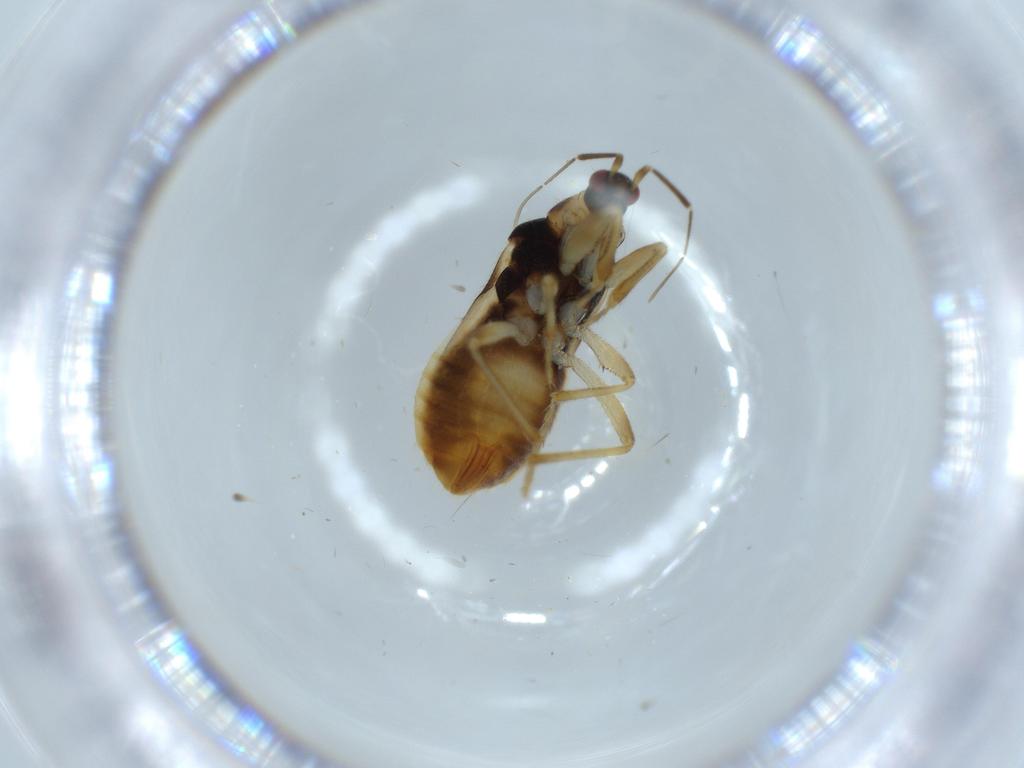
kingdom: Animalia
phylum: Arthropoda
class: Insecta
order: Hemiptera
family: Nabidae
